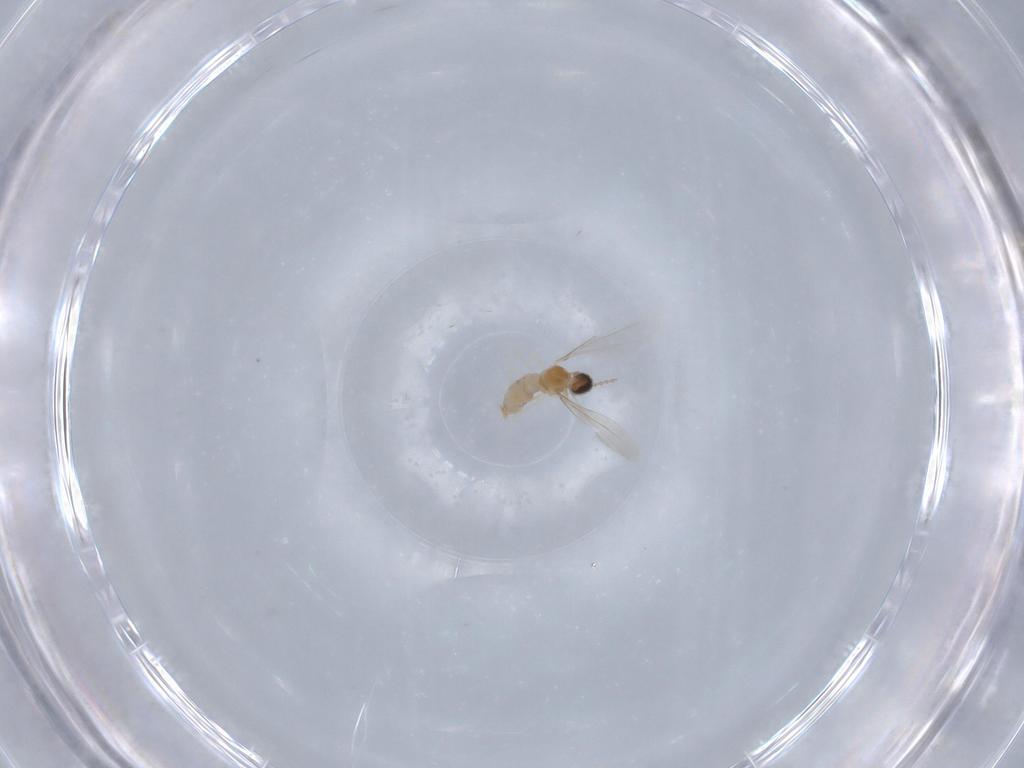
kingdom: Animalia
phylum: Arthropoda
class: Insecta
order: Diptera
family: Cecidomyiidae
